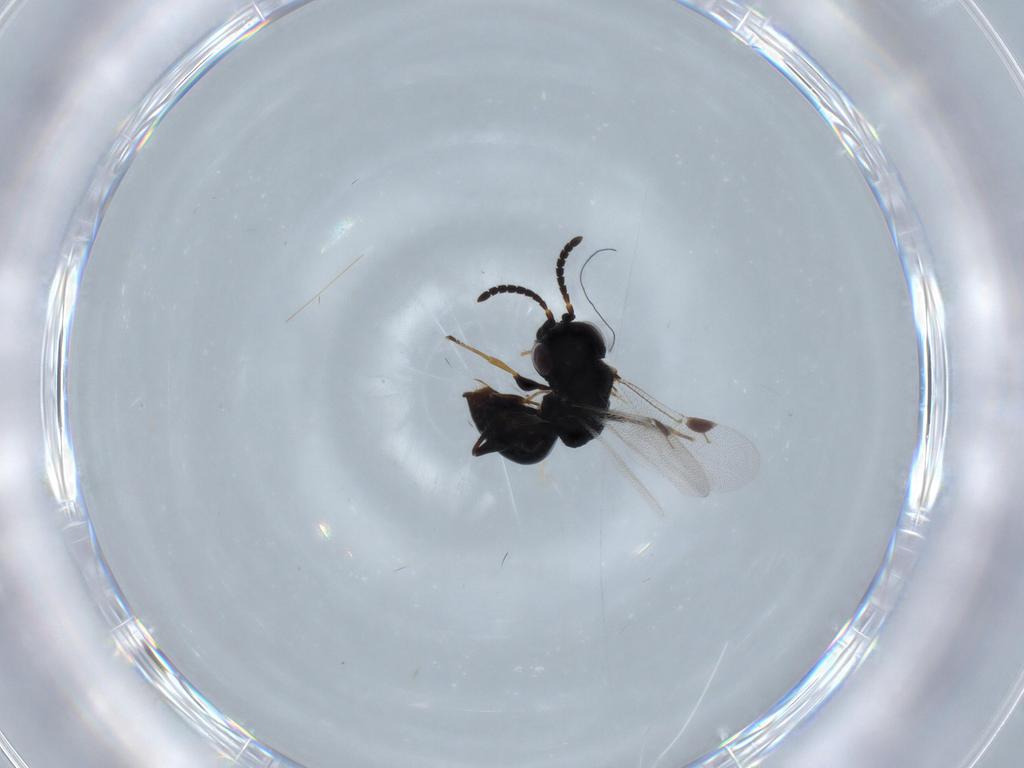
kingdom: Animalia
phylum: Arthropoda
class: Insecta
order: Hymenoptera
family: Dryinidae
